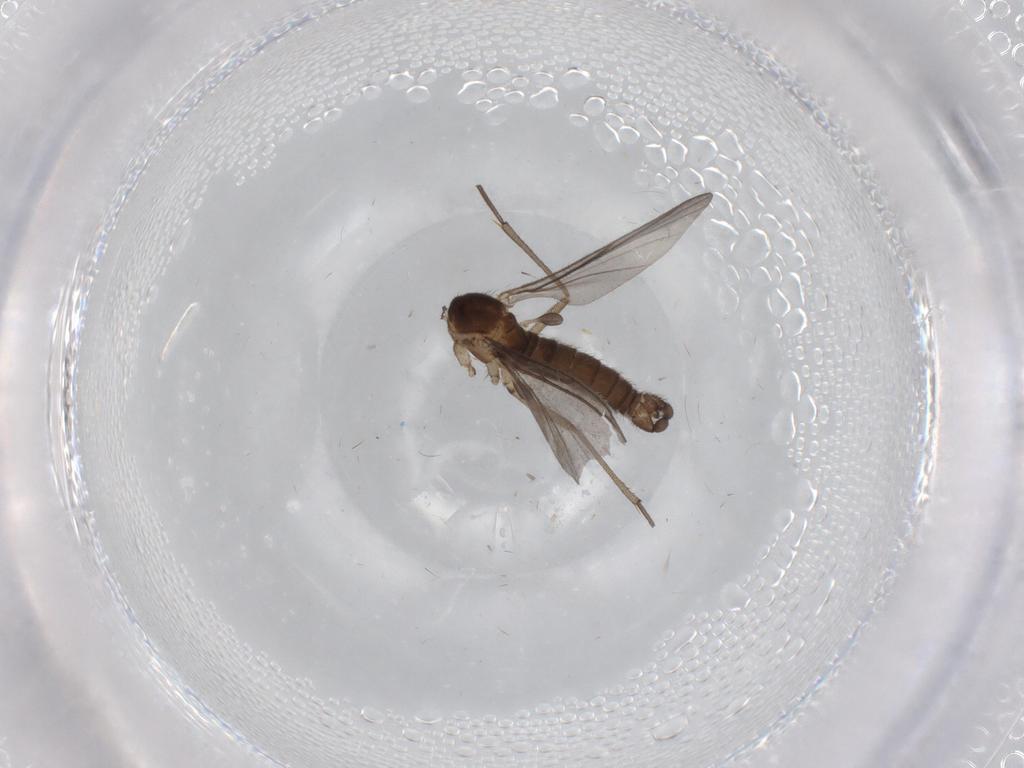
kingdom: Animalia
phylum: Arthropoda
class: Insecta
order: Diptera
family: Tabanidae
